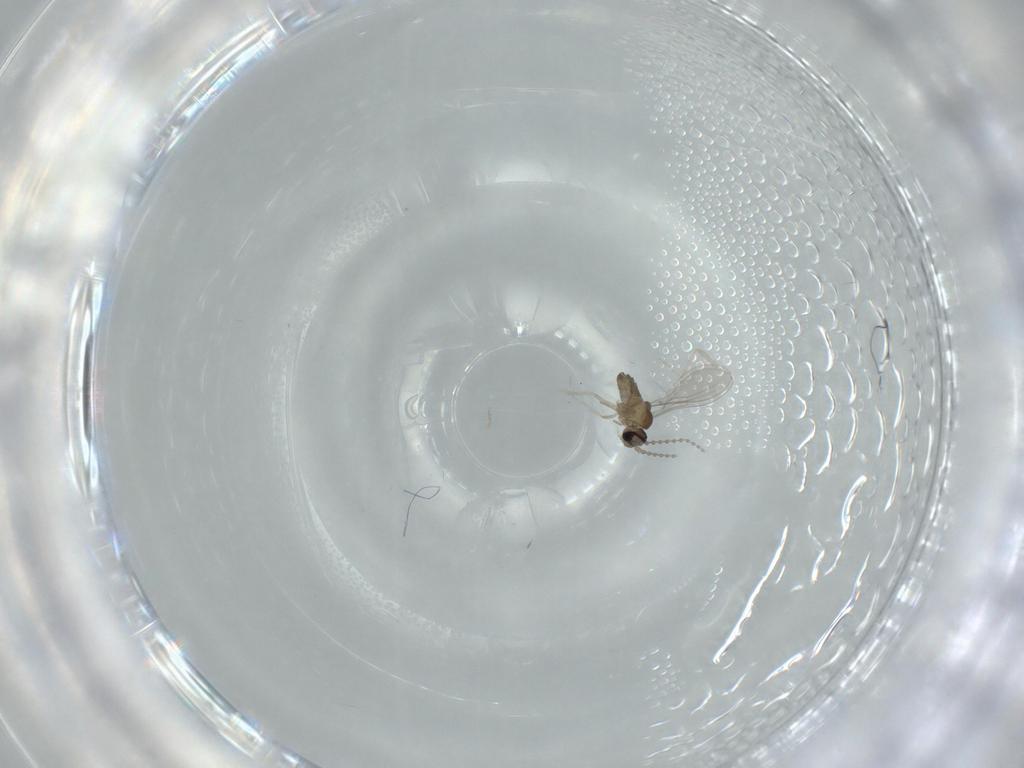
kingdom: Animalia
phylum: Arthropoda
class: Insecta
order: Diptera
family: Cecidomyiidae
